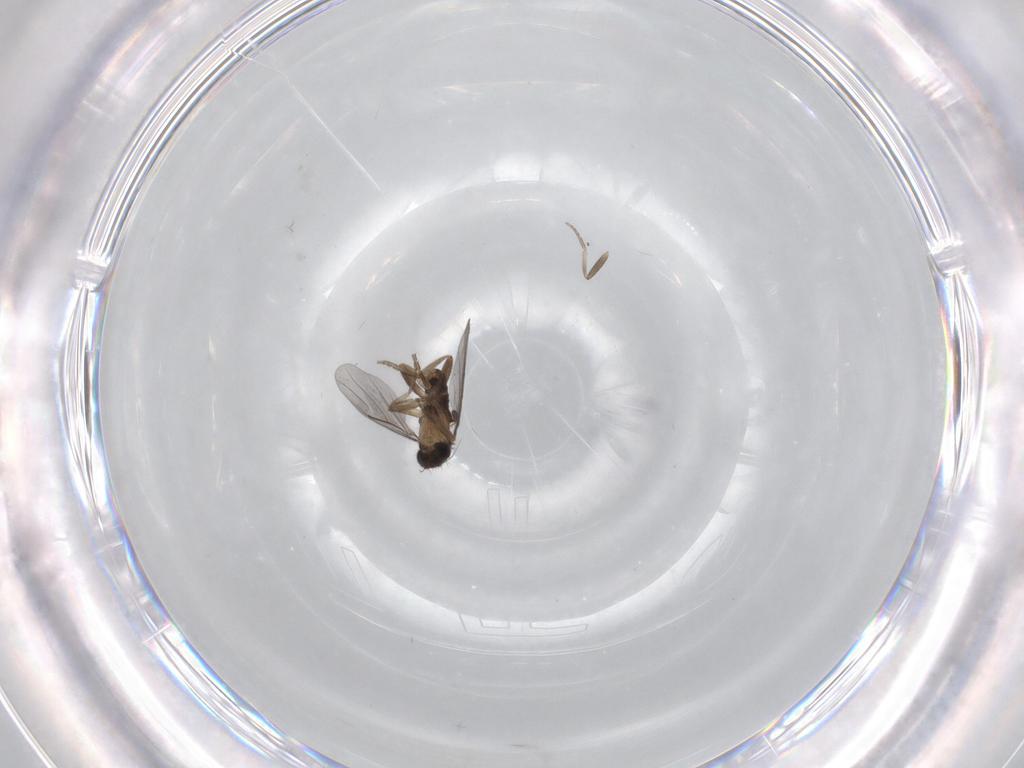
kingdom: Animalia
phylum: Arthropoda
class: Insecta
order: Diptera
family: Phoridae
